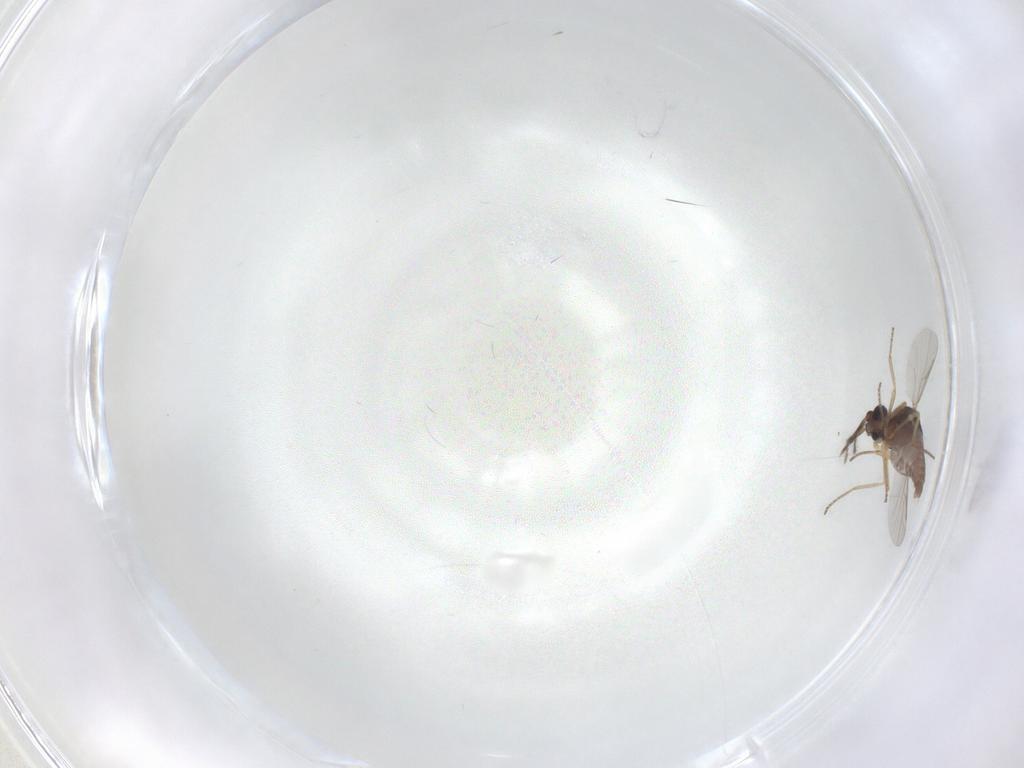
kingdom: Animalia
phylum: Arthropoda
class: Insecta
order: Diptera
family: Ceratopogonidae
